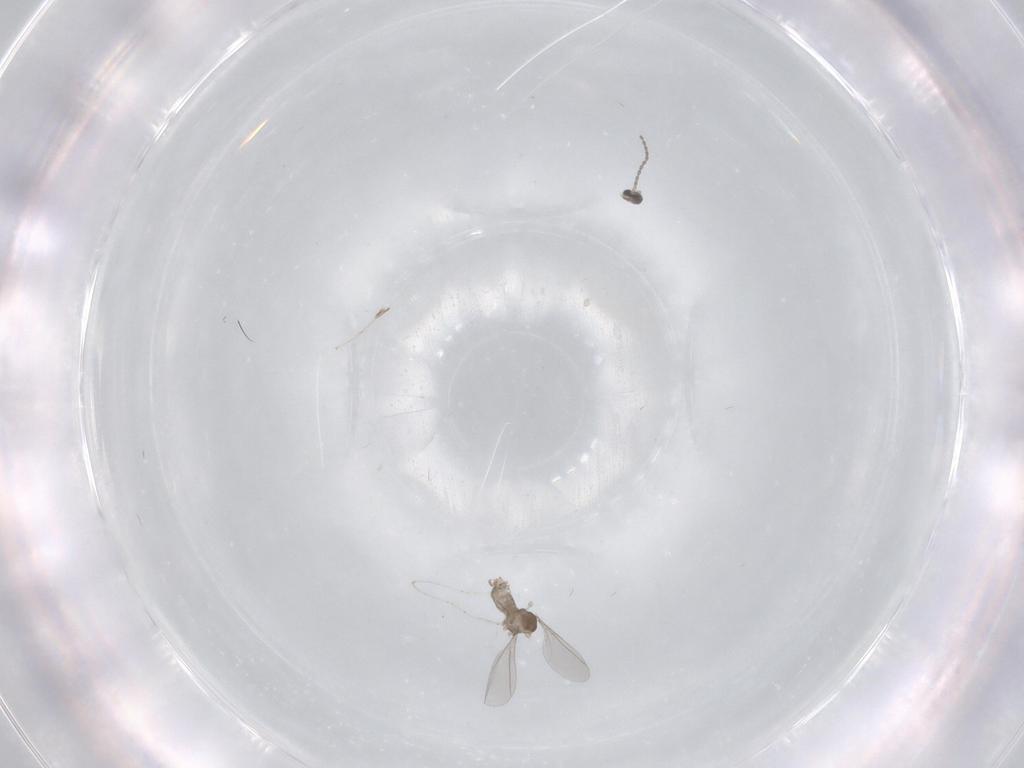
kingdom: Animalia
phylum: Arthropoda
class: Insecta
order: Diptera
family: Cecidomyiidae
